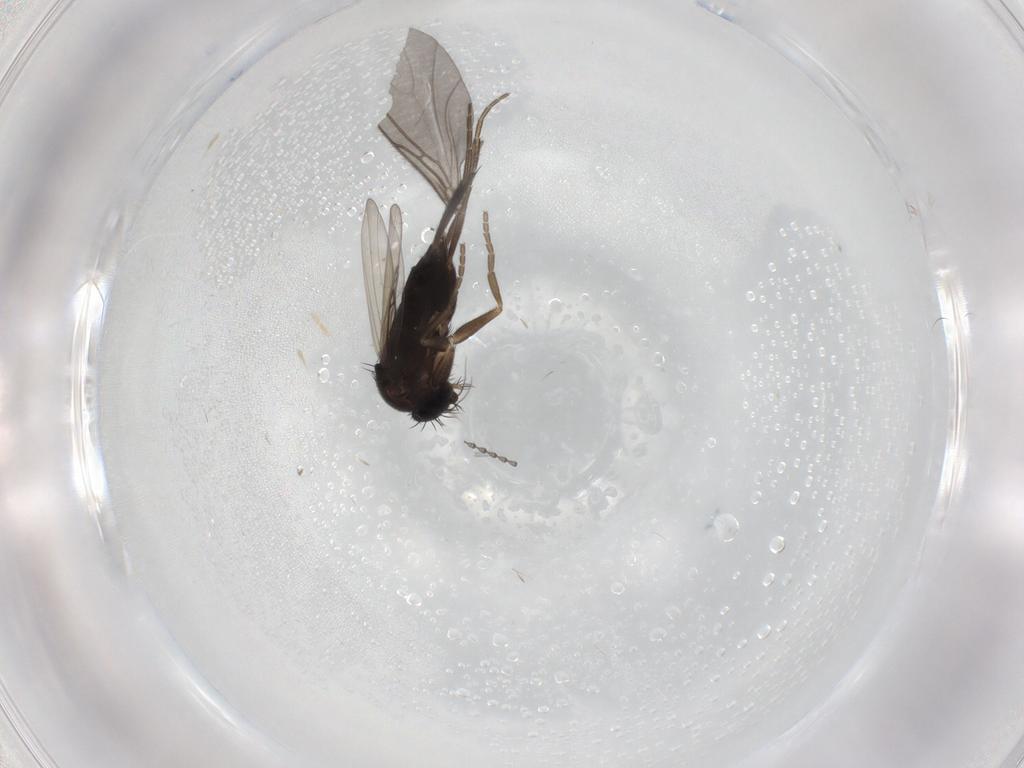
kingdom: Animalia
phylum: Arthropoda
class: Insecta
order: Diptera
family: Phoridae
